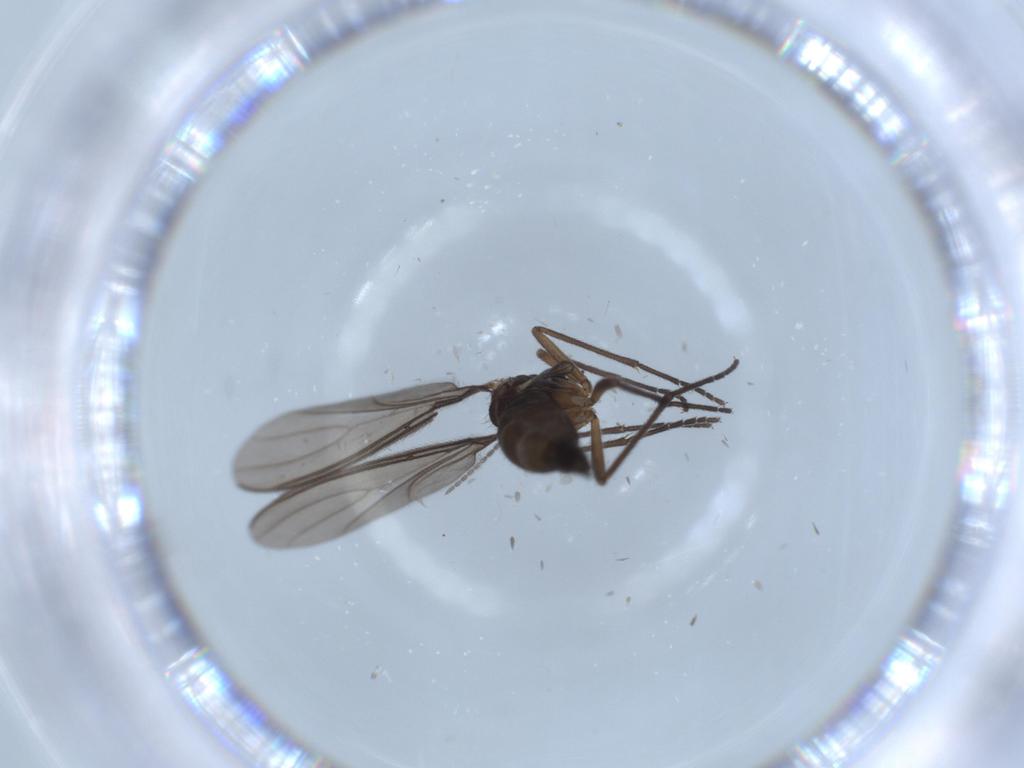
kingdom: Animalia
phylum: Arthropoda
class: Insecta
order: Diptera
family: Sciaridae
